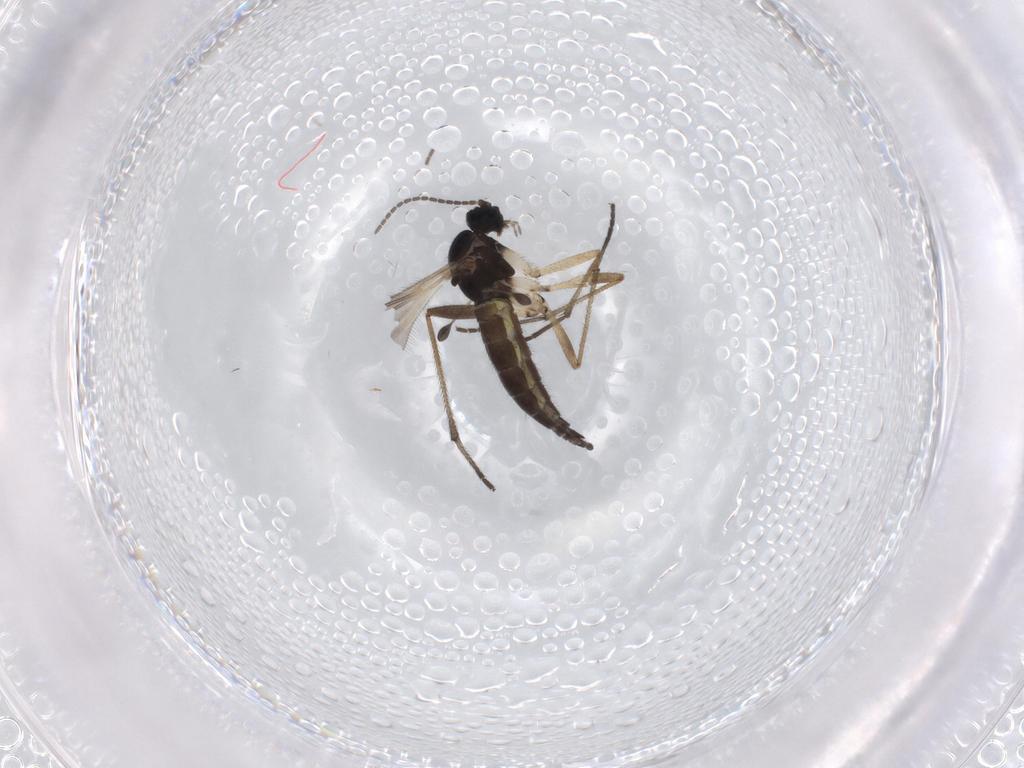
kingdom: Animalia
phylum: Arthropoda
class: Insecta
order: Diptera
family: Sciaridae
